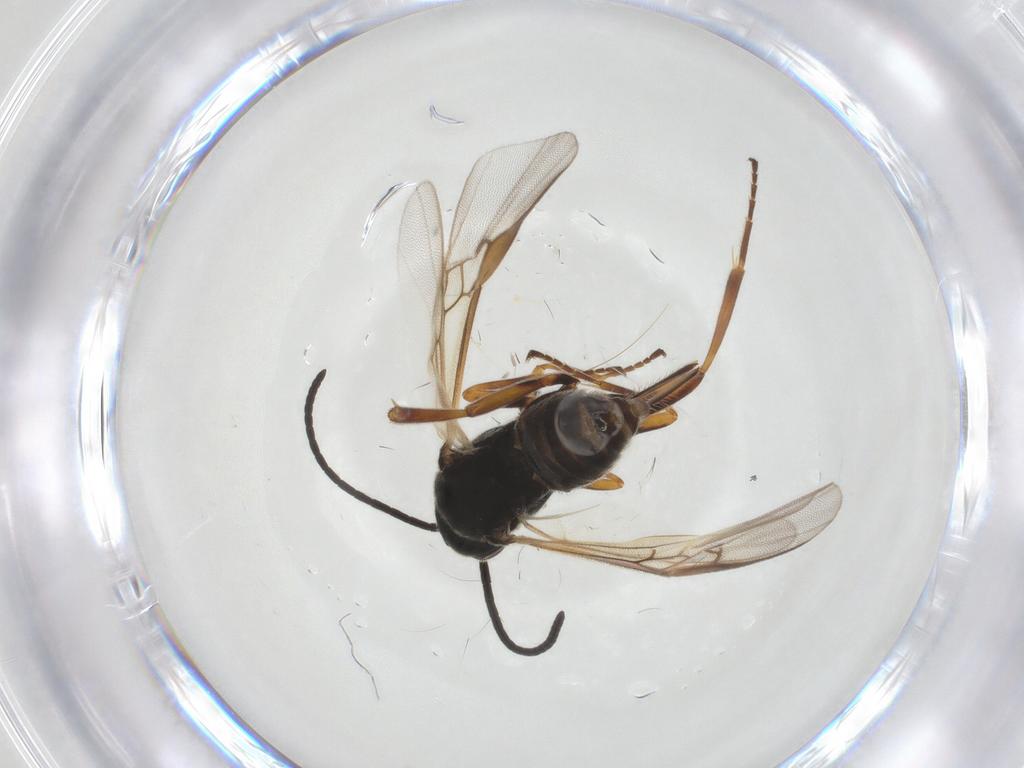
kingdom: Animalia
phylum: Arthropoda
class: Insecta
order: Hymenoptera
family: Braconidae
